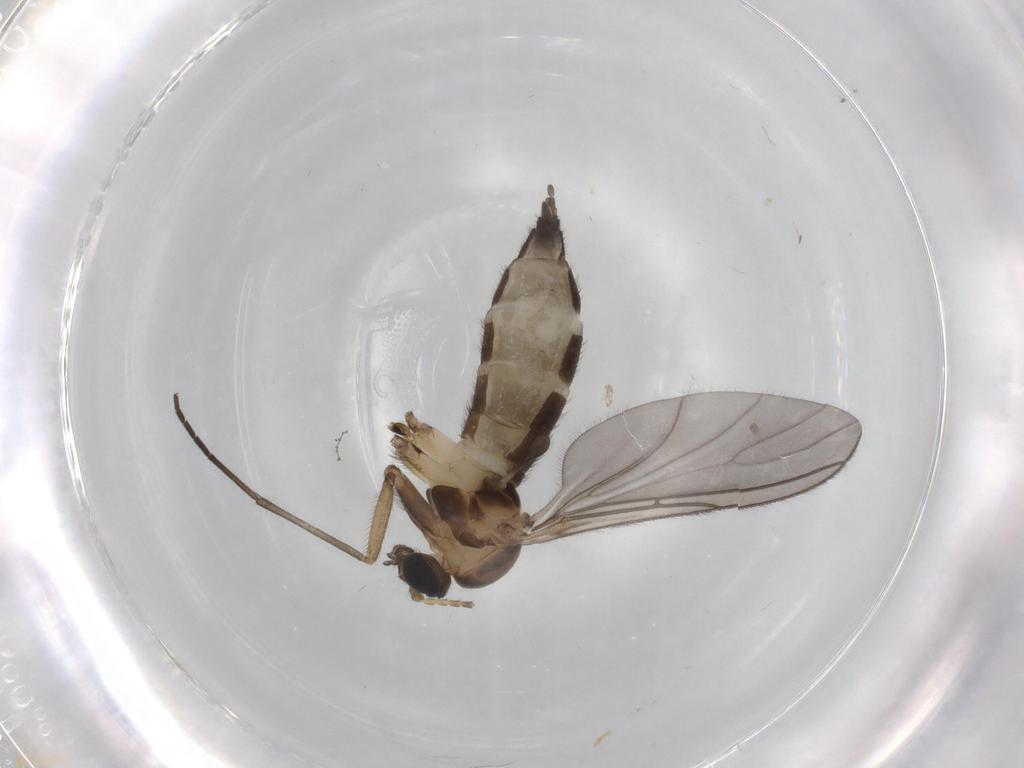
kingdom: Animalia
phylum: Arthropoda
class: Insecta
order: Diptera
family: Sciaridae
